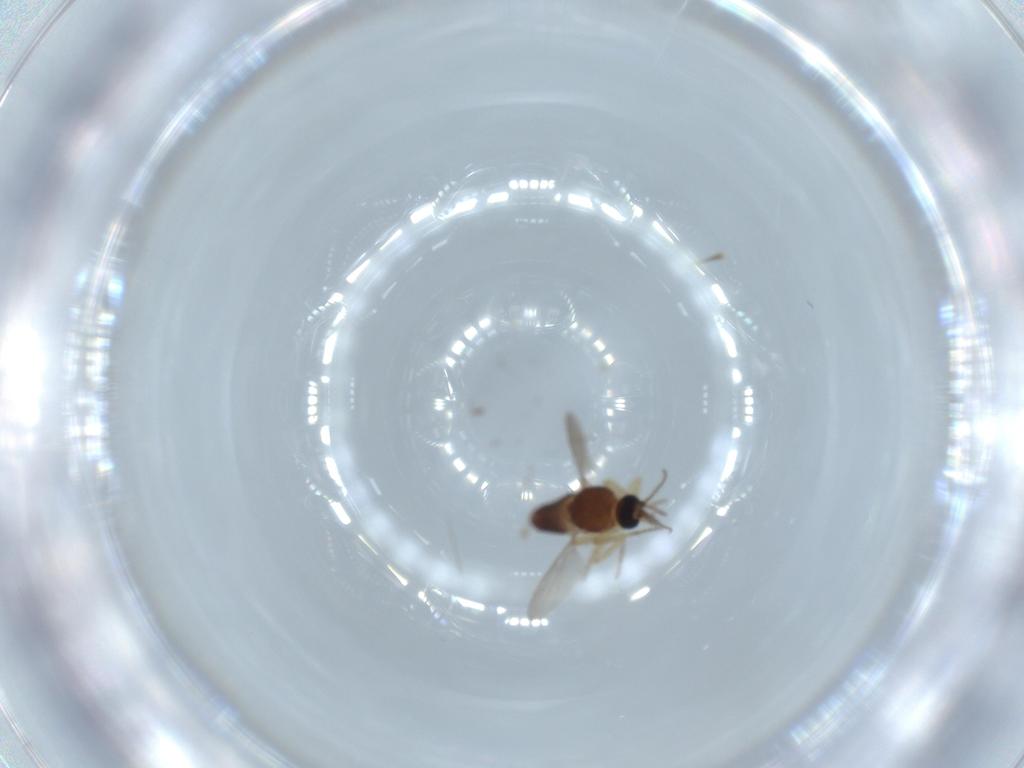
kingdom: Animalia
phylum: Arthropoda
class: Insecta
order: Diptera
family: Ceratopogonidae
